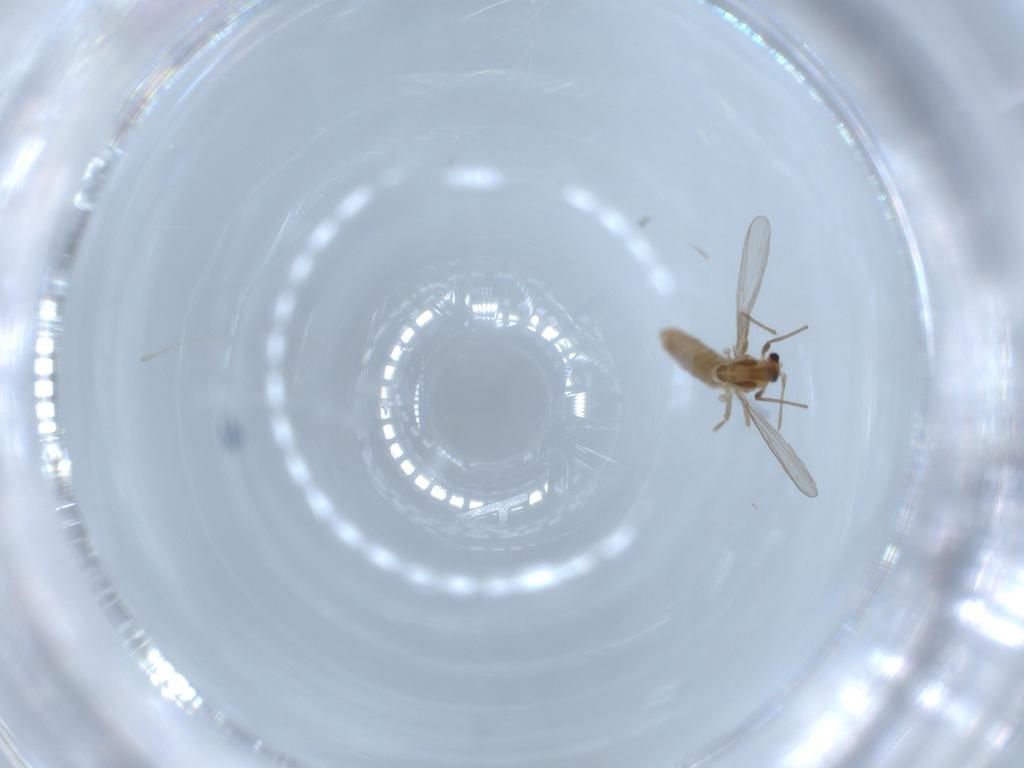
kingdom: Animalia
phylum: Arthropoda
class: Insecta
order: Diptera
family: Chironomidae
